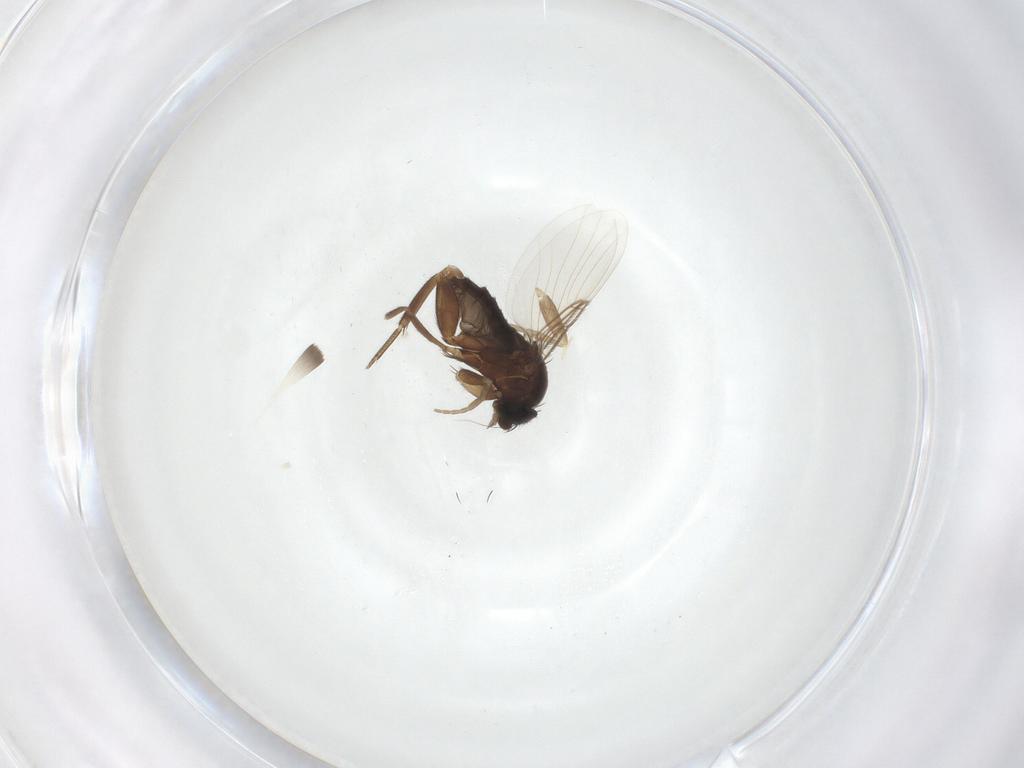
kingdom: Animalia
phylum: Arthropoda
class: Insecta
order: Diptera
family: Phoridae
